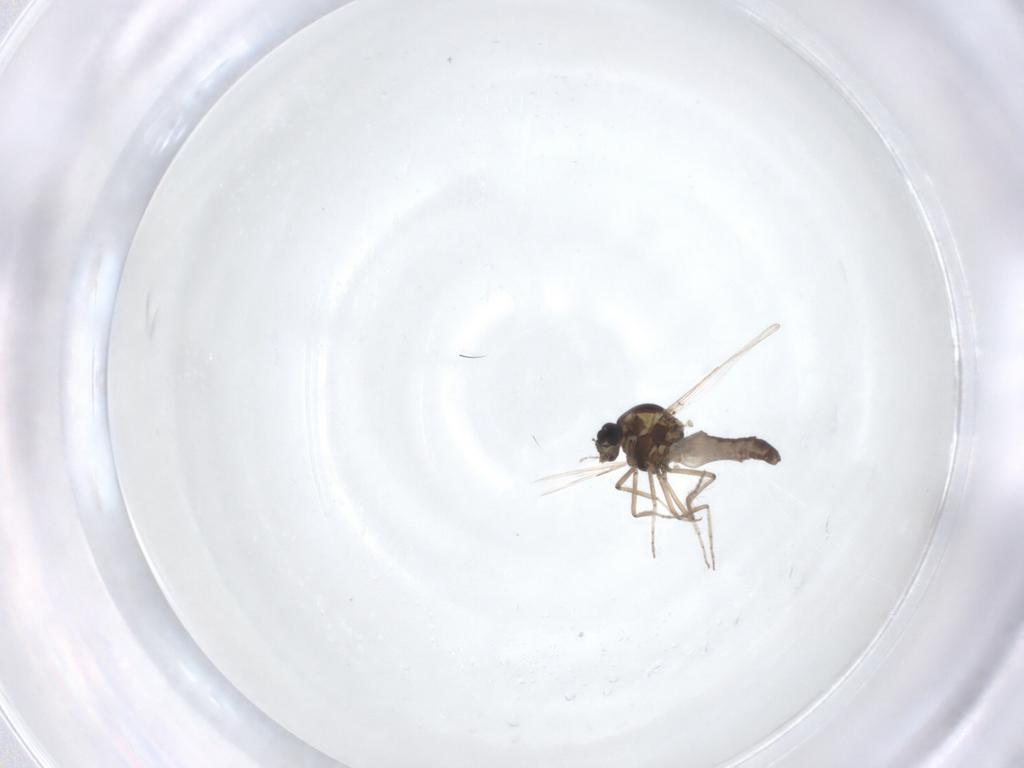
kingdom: Animalia
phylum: Arthropoda
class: Insecta
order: Diptera
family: Ceratopogonidae
